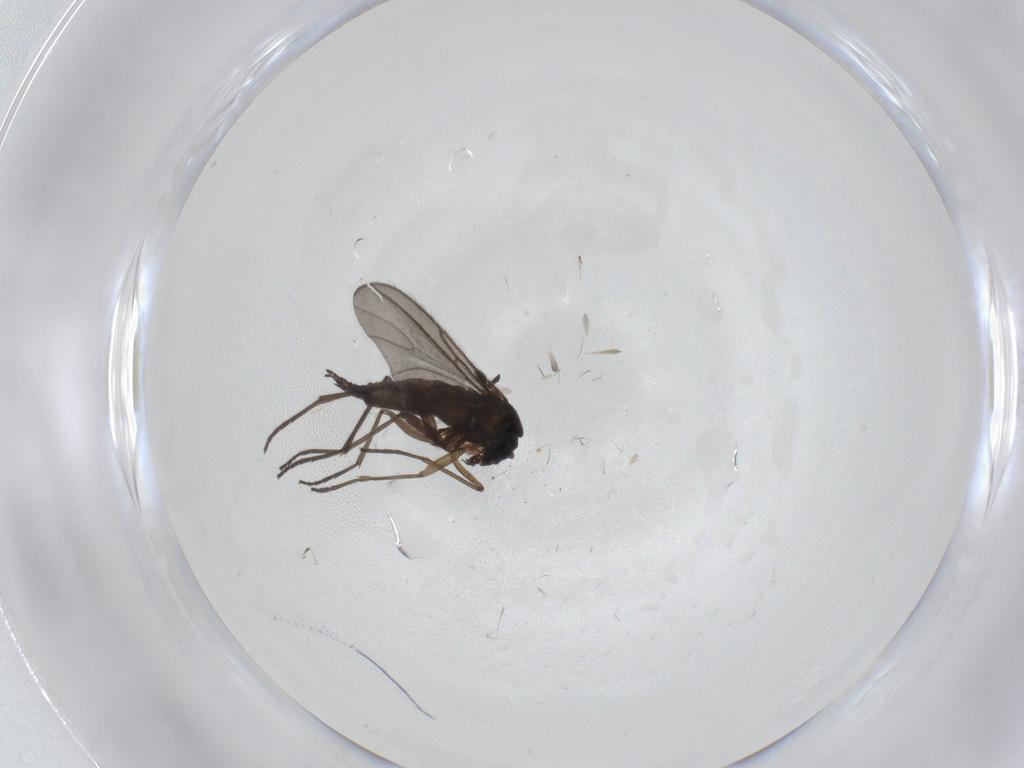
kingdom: Animalia
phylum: Arthropoda
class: Insecta
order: Diptera
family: Sciaridae
